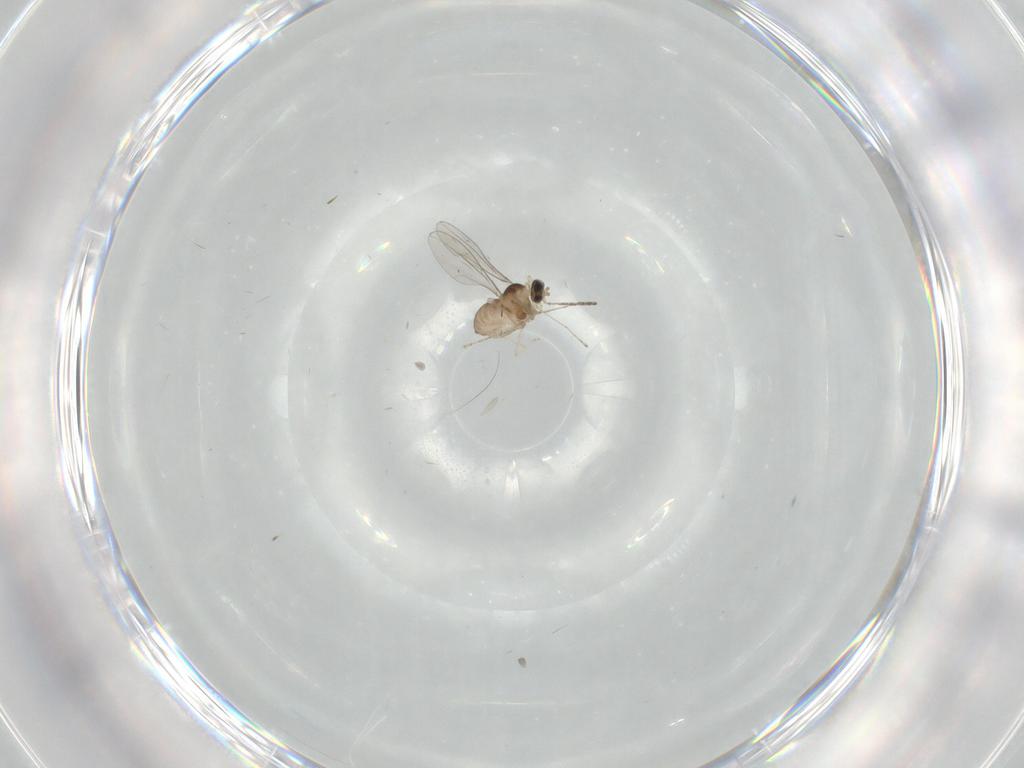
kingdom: Animalia
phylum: Arthropoda
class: Insecta
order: Diptera
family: Cecidomyiidae
